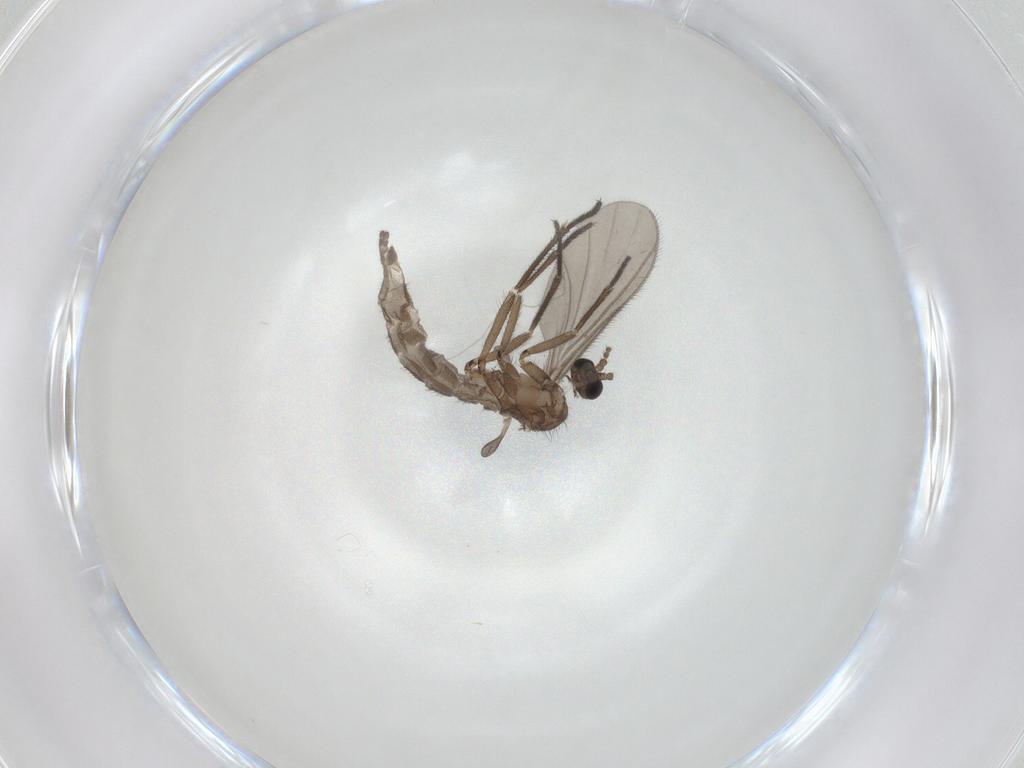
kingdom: Animalia
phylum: Arthropoda
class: Insecta
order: Diptera
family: Sciaridae
